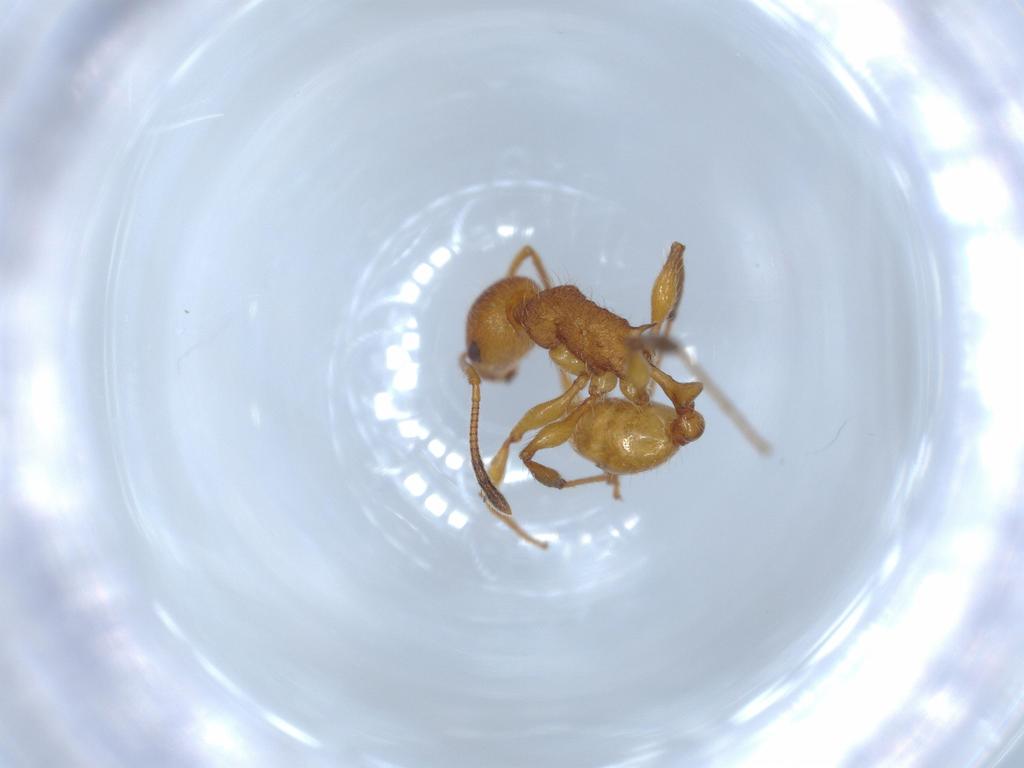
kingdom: Animalia
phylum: Arthropoda
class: Insecta
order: Hymenoptera
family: Formicidae
